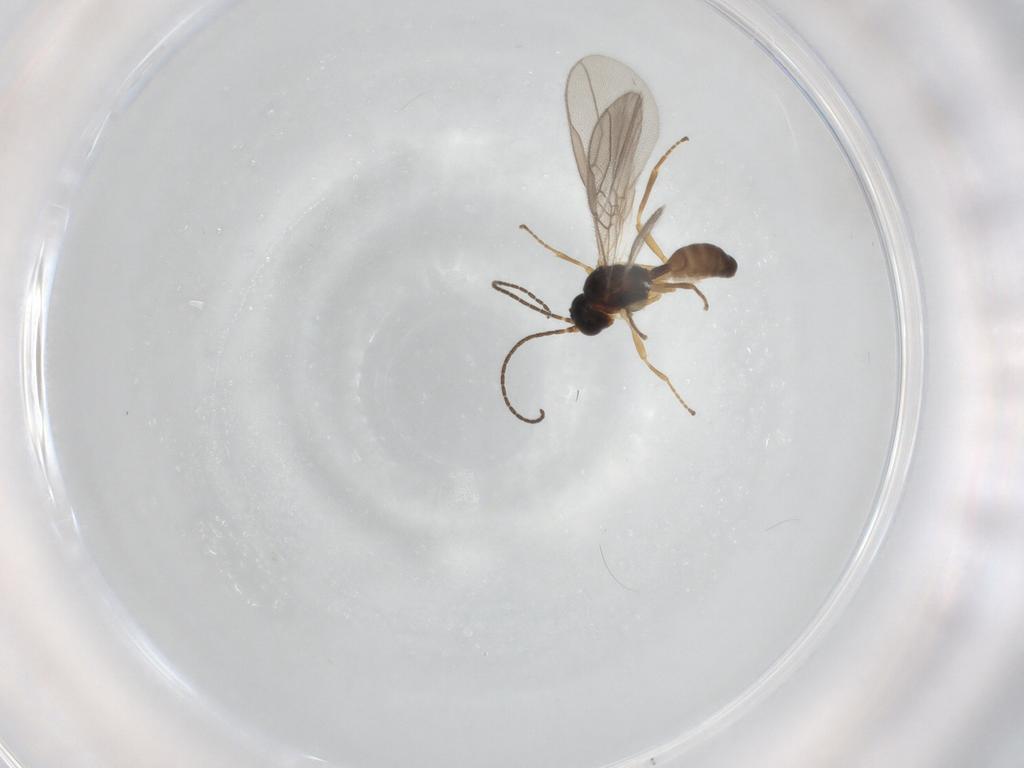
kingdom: Animalia
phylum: Arthropoda
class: Insecta
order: Hymenoptera
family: Braconidae
